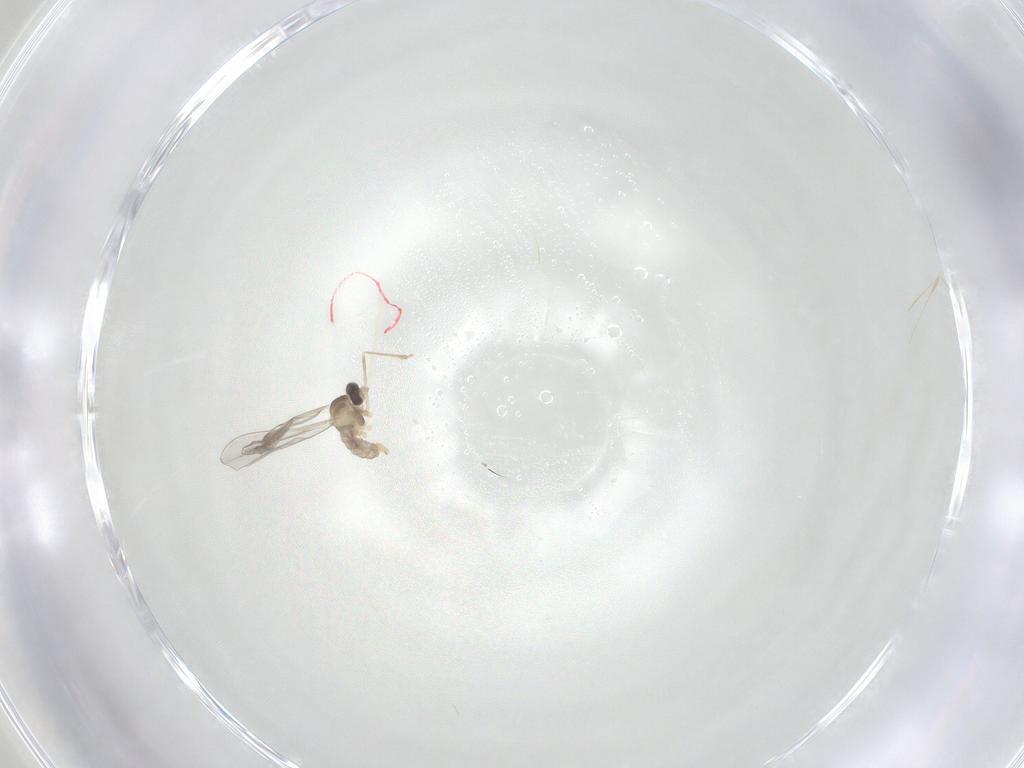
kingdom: Animalia
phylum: Arthropoda
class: Insecta
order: Diptera
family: Cecidomyiidae
